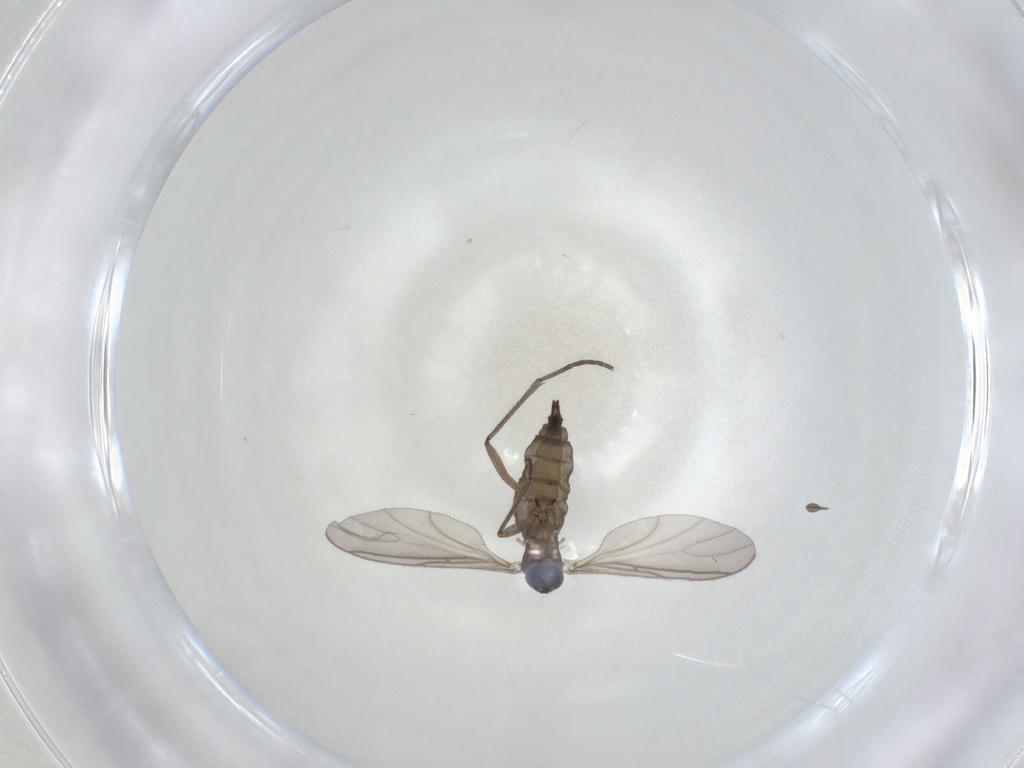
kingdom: Animalia
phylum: Arthropoda
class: Insecta
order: Diptera
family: Sciaridae
